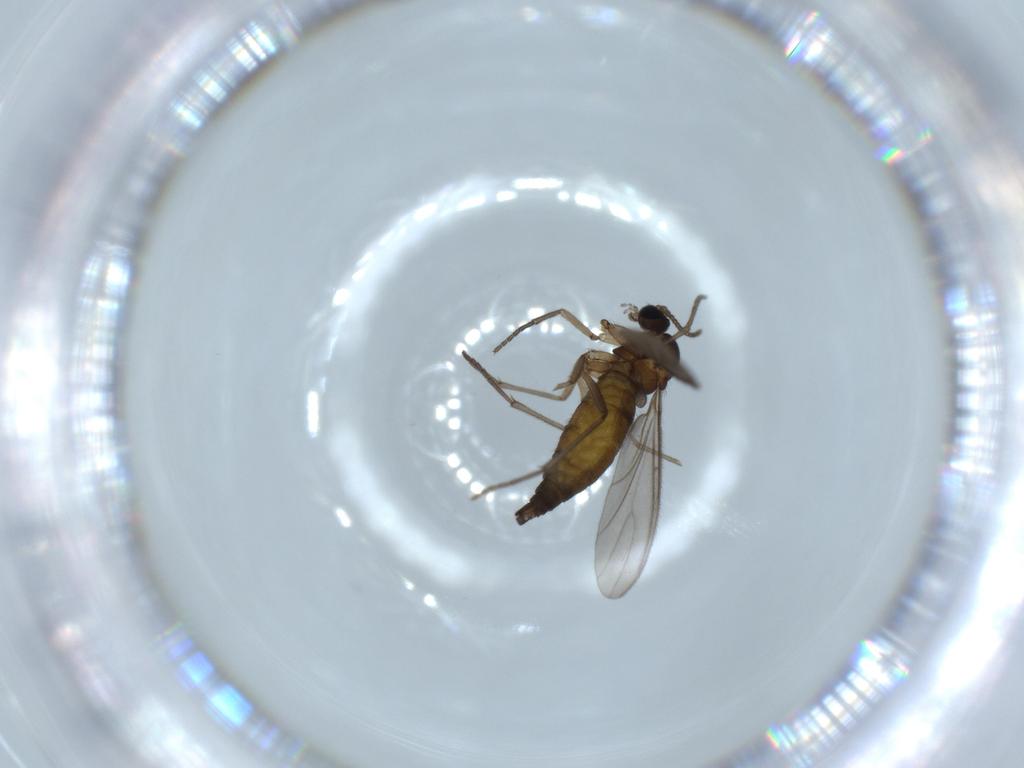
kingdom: Animalia
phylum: Arthropoda
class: Insecta
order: Diptera
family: Sciaridae
